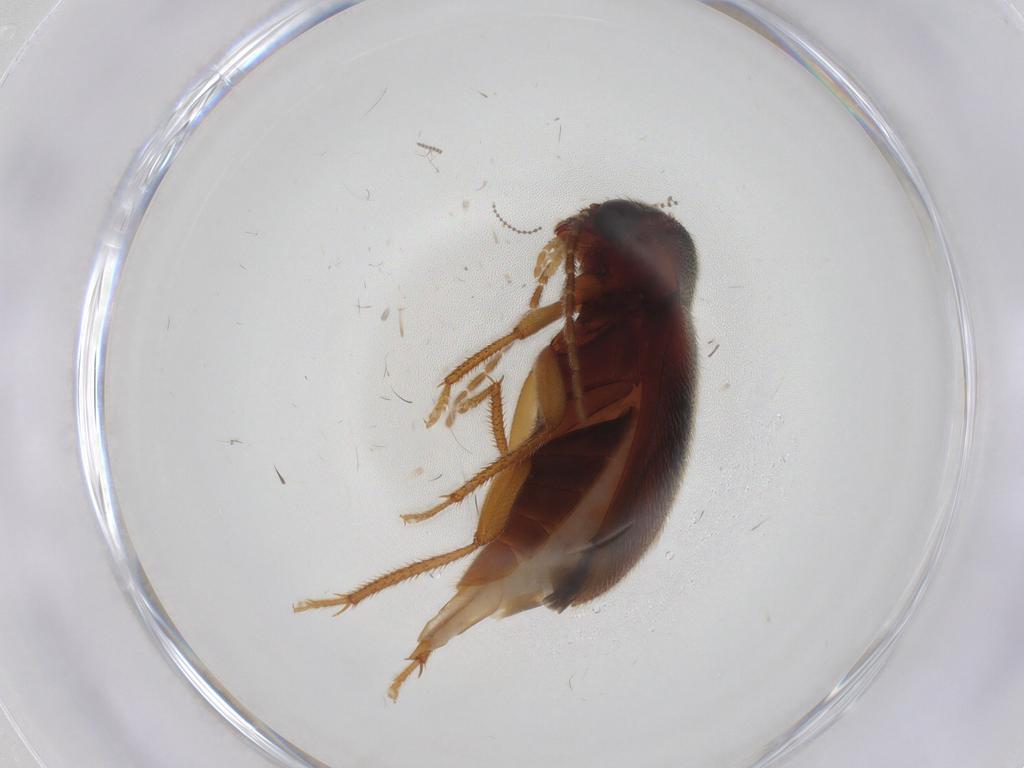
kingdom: Animalia
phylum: Arthropoda
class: Insecta
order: Coleoptera
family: Ptilodactylidae
